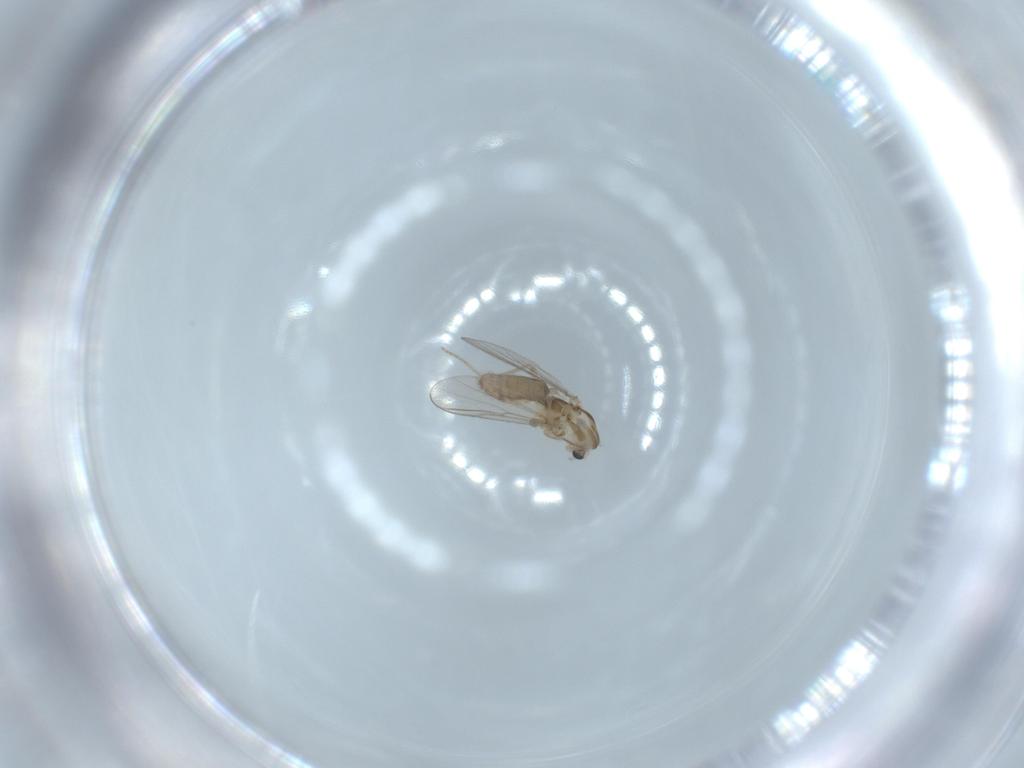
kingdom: Animalia
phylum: Arthropoda
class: Insecta
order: Diptera
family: Chironomidae
